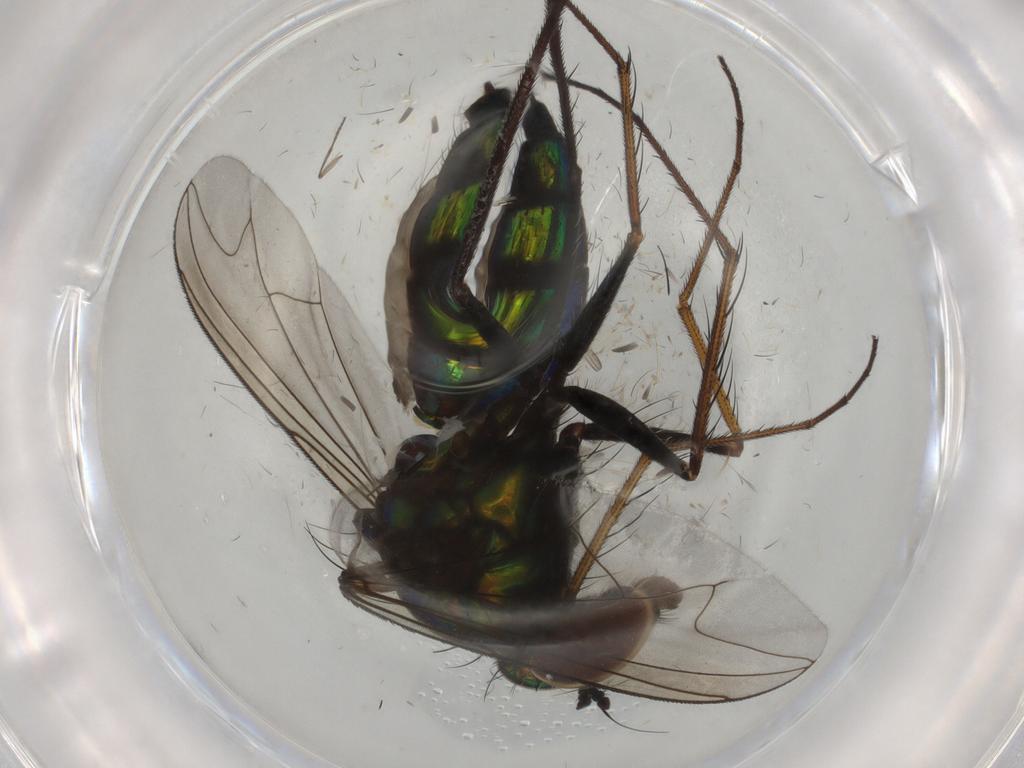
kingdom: Animalia
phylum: Arthropoda
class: Insecta
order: Diptera
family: Dolichopodidae
